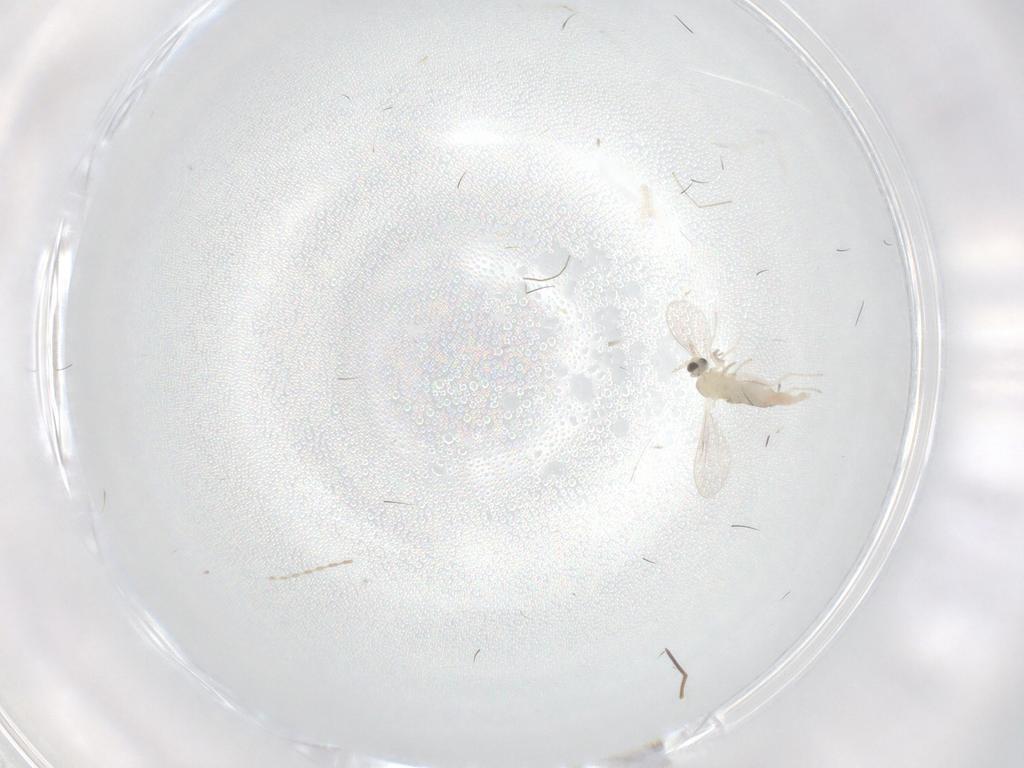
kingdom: Animalia
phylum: Arthropoda
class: Insecta
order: Diptera
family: Cecidomyiidae
